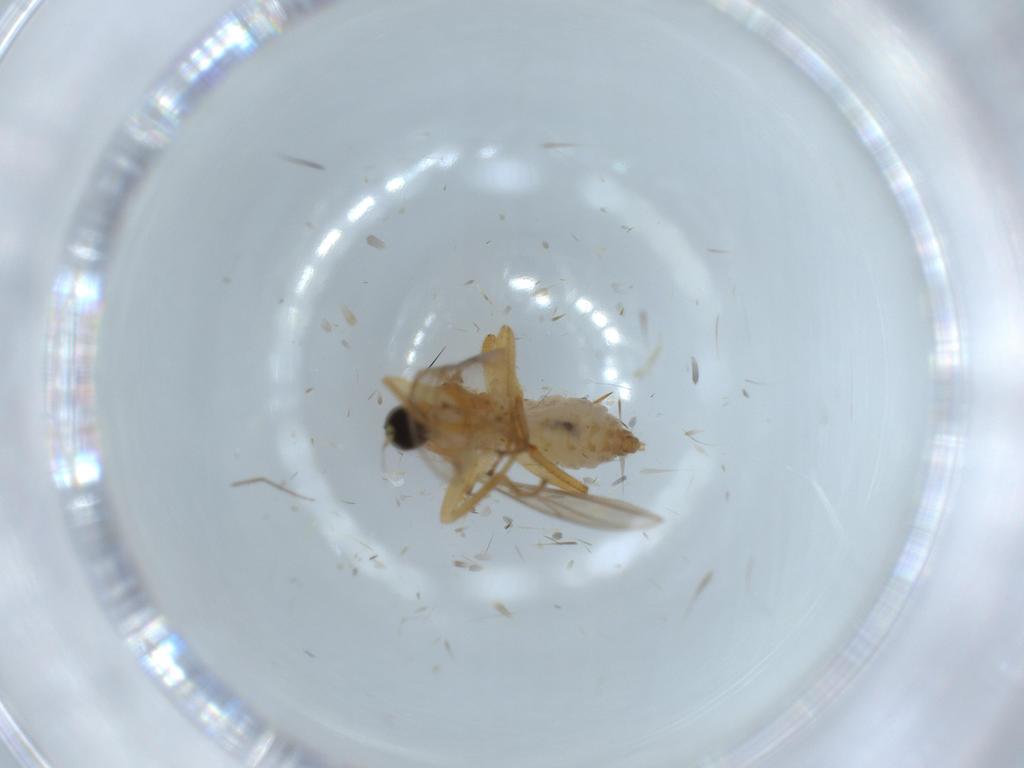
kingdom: Animalia
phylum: Arthropoda
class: Insecta
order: Diptera
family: Hybotidae
